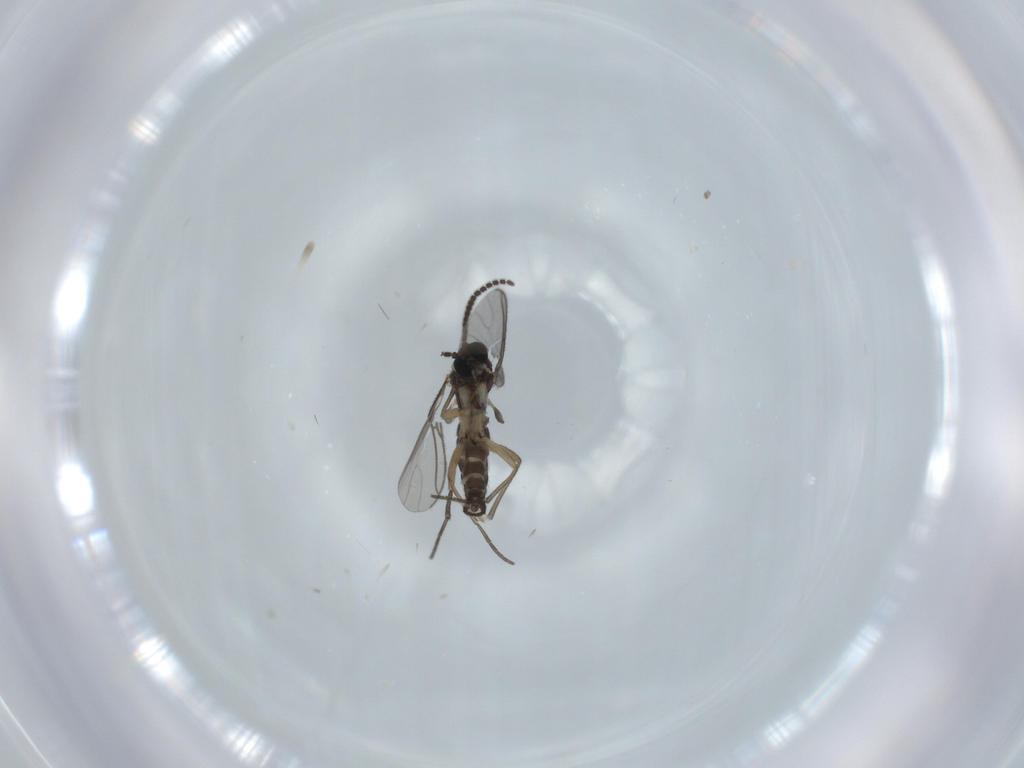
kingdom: Animalia
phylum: Arthropoda
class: Insecta
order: Diptera
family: Sciaridae
